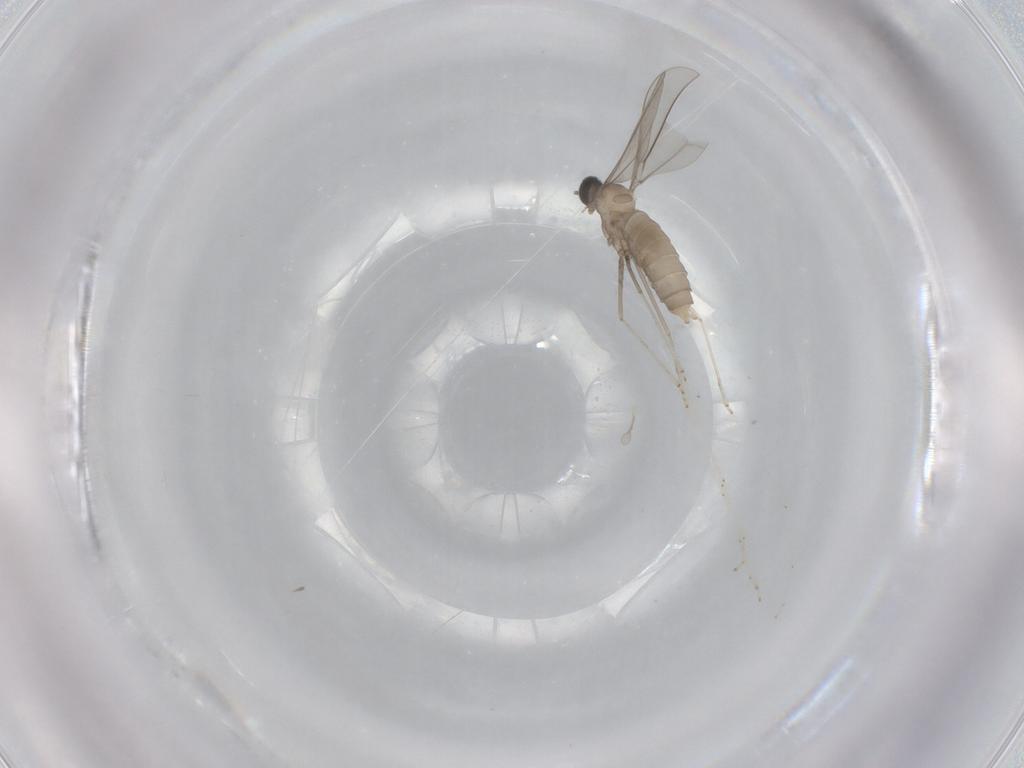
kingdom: Animalia
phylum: Arthropoda
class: Insecta
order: Diptera
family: Cecidomyiidae
